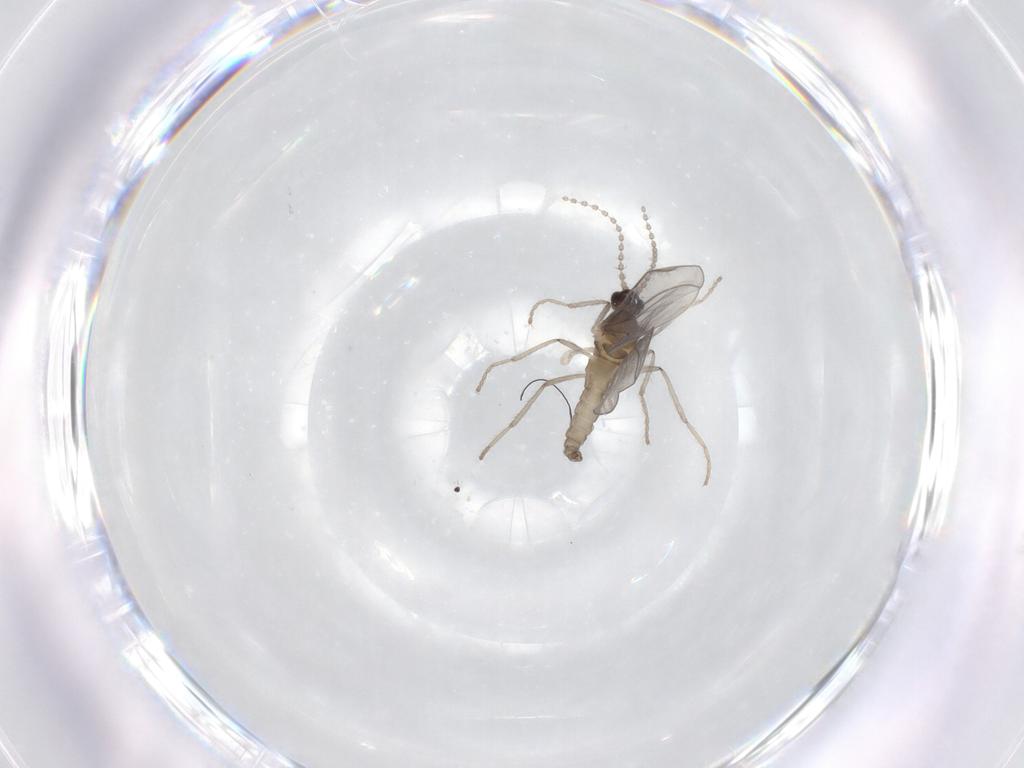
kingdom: Animalia
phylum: Arthropoda
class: Insecta
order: Diptera
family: Sciaridae
